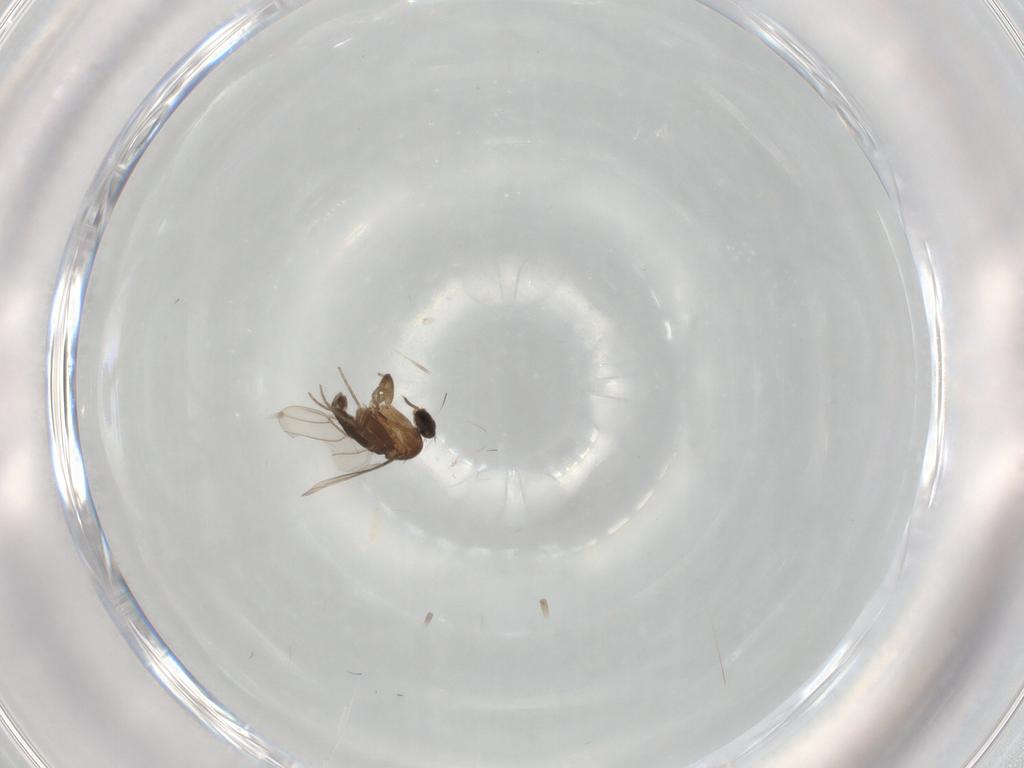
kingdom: Animalia
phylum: Arthropoda
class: Insecta
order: Diptera
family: Phoridae
